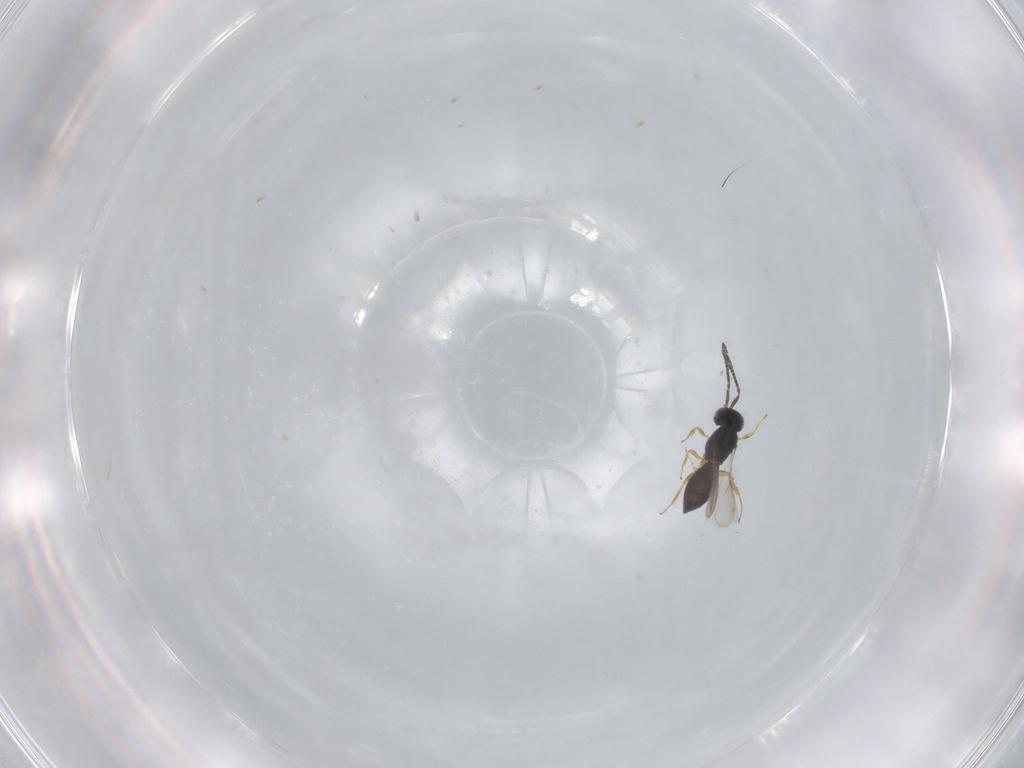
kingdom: Animalia
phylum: Arthropoda
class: Insecta
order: Hymenoptera
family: Scelionidae
